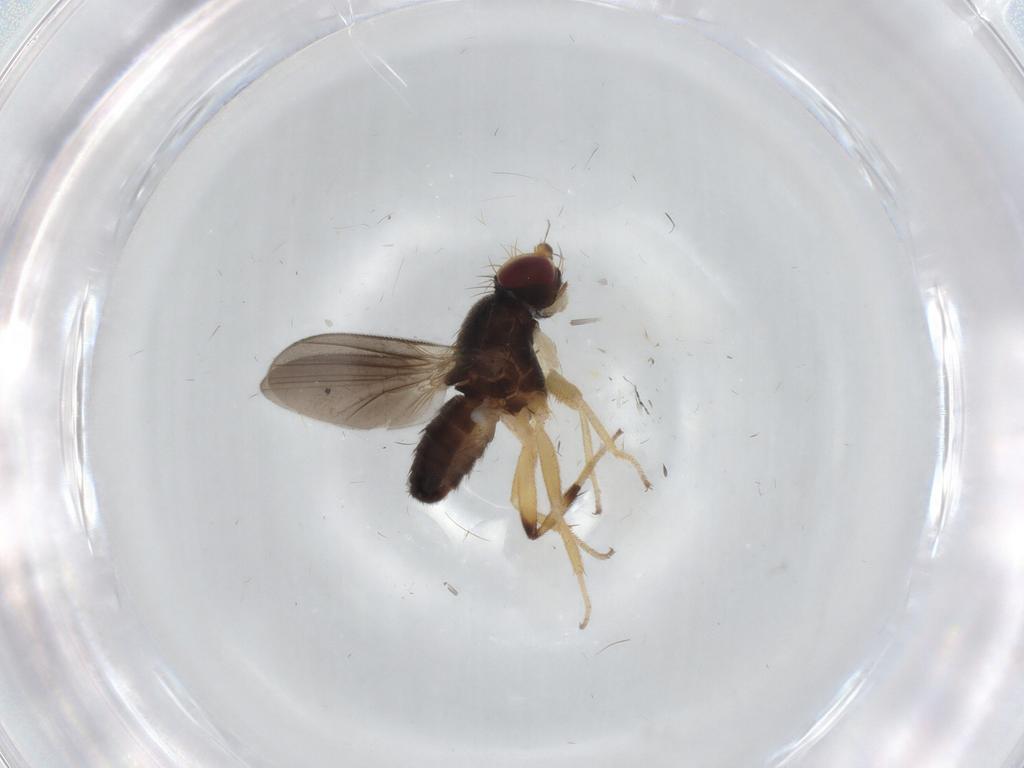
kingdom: Animalia
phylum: Arthropoda
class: Insecta
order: Diptera
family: Clusiidae
